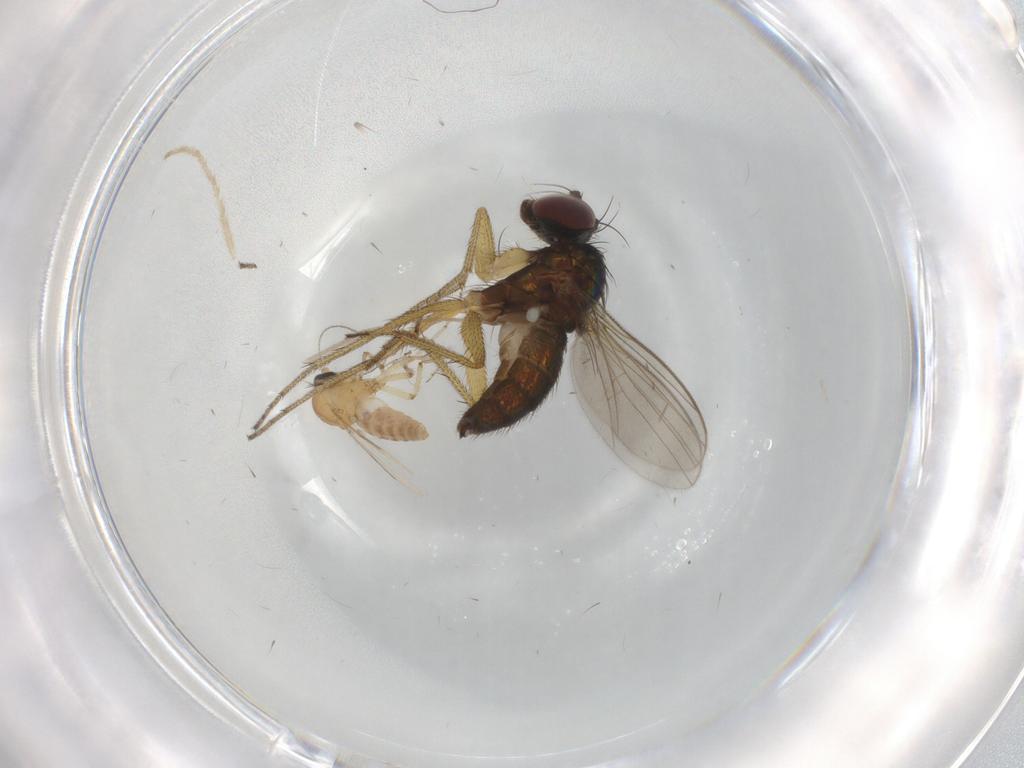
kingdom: Animalia
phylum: Arthropoda
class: Insecta
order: Diptera
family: Ceratopogonidae
